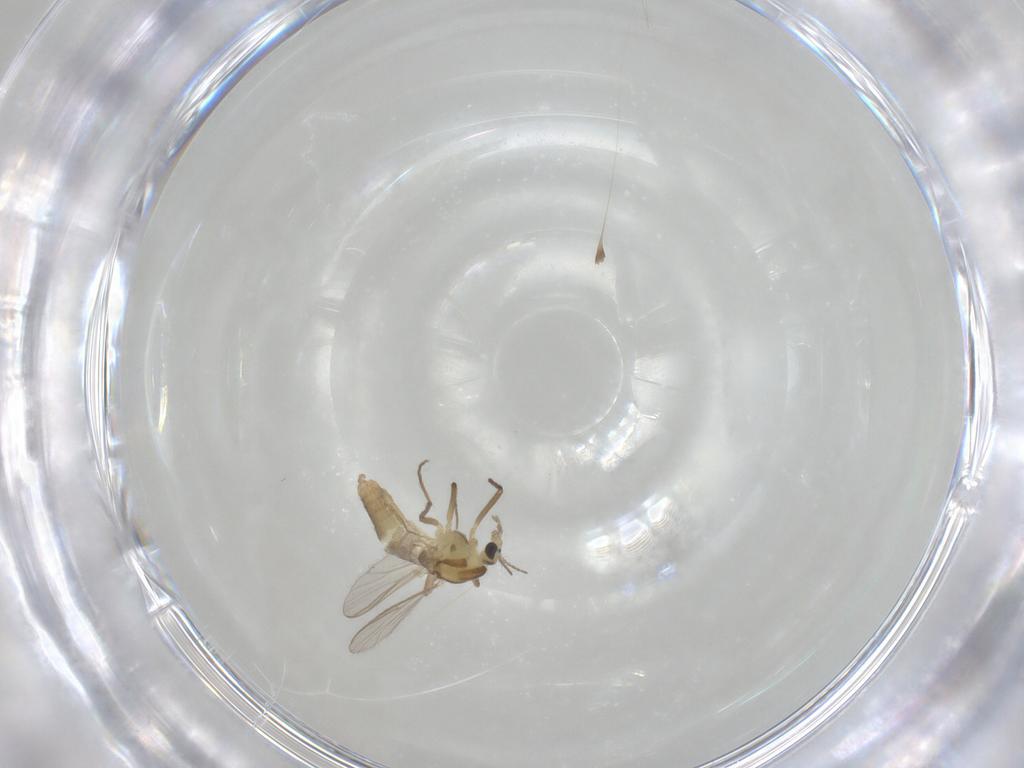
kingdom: Animalia
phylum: Arthropoda
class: Insecta
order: Diptera
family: Chironomidae
